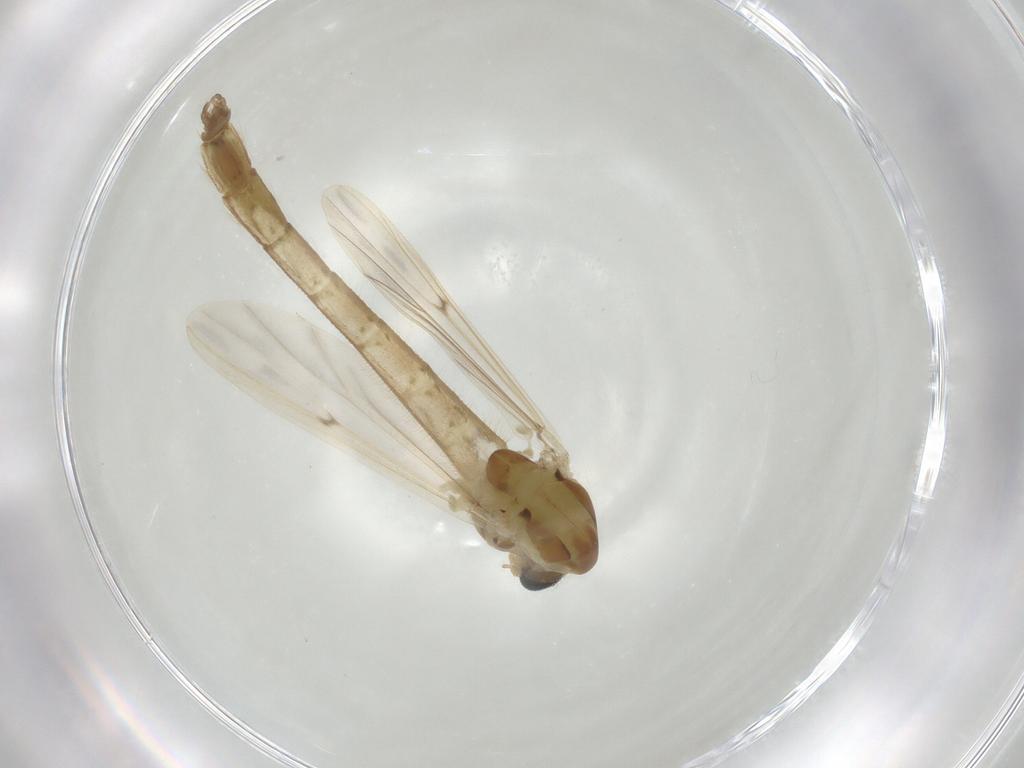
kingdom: Animalia
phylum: Arthropoda
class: Insecta
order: Diptera
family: Chironomidae
